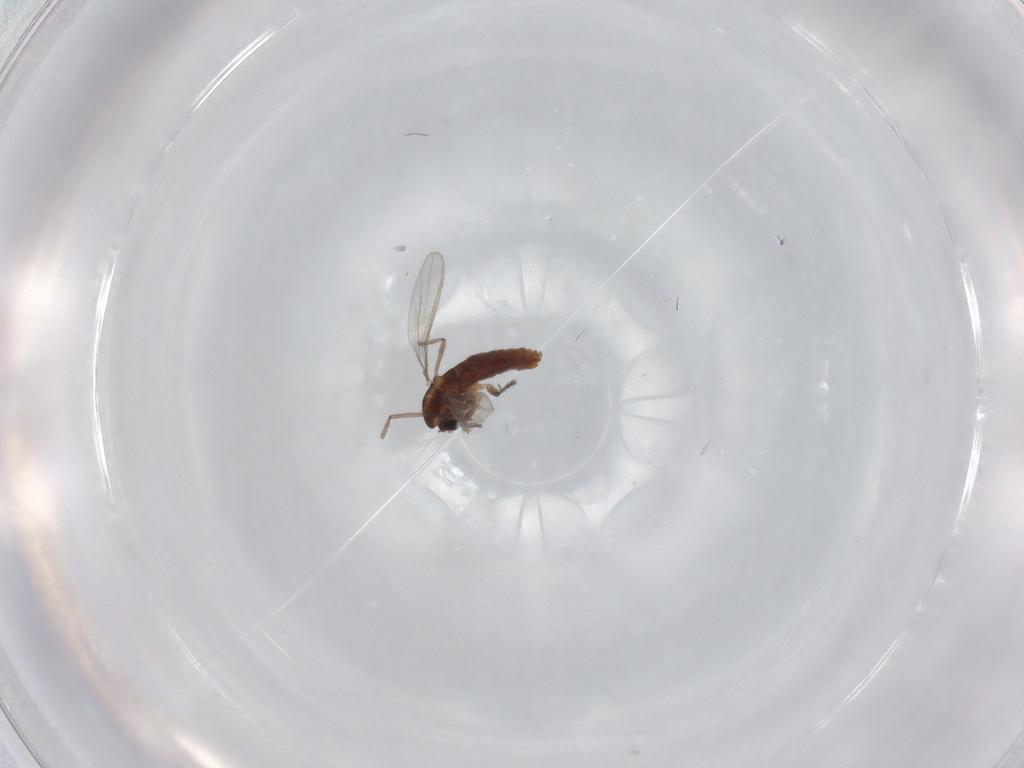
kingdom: Animalia
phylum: Arthropoda
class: Insecta
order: Diptera
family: Chironomidae
